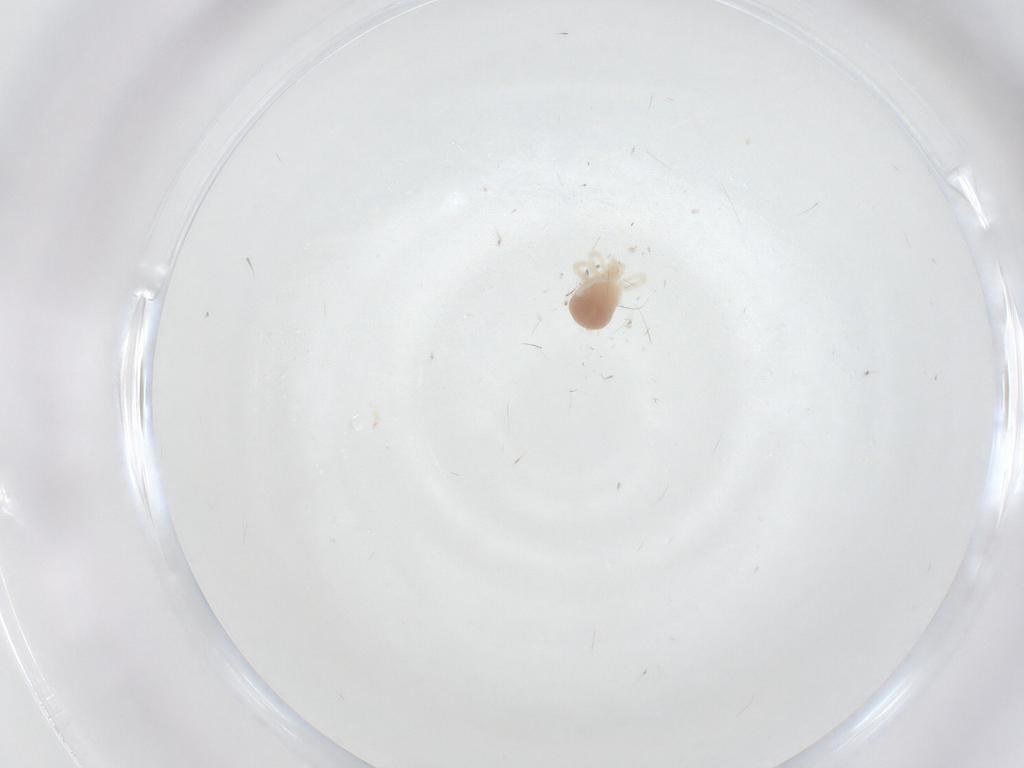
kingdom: Animalia
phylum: Arthropoda
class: Arachnida
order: Trombidiformes
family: Anystidae
